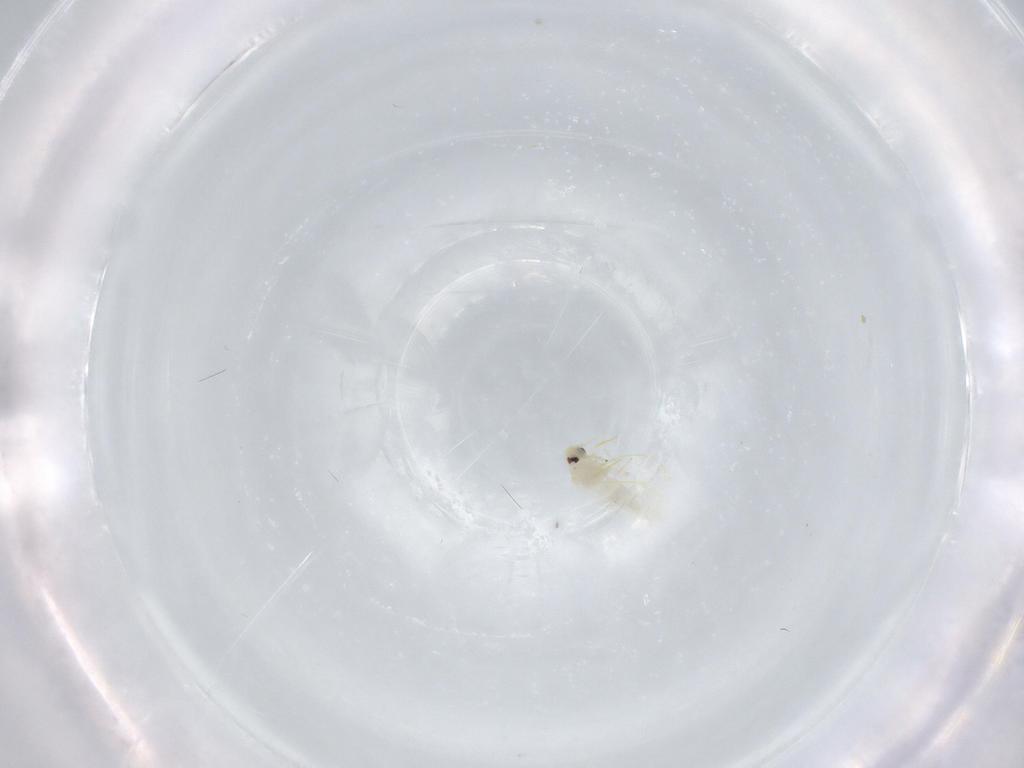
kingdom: Animalia
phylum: Arthropoda
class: Insecta
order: Hemiptera
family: Aleyrodidae
